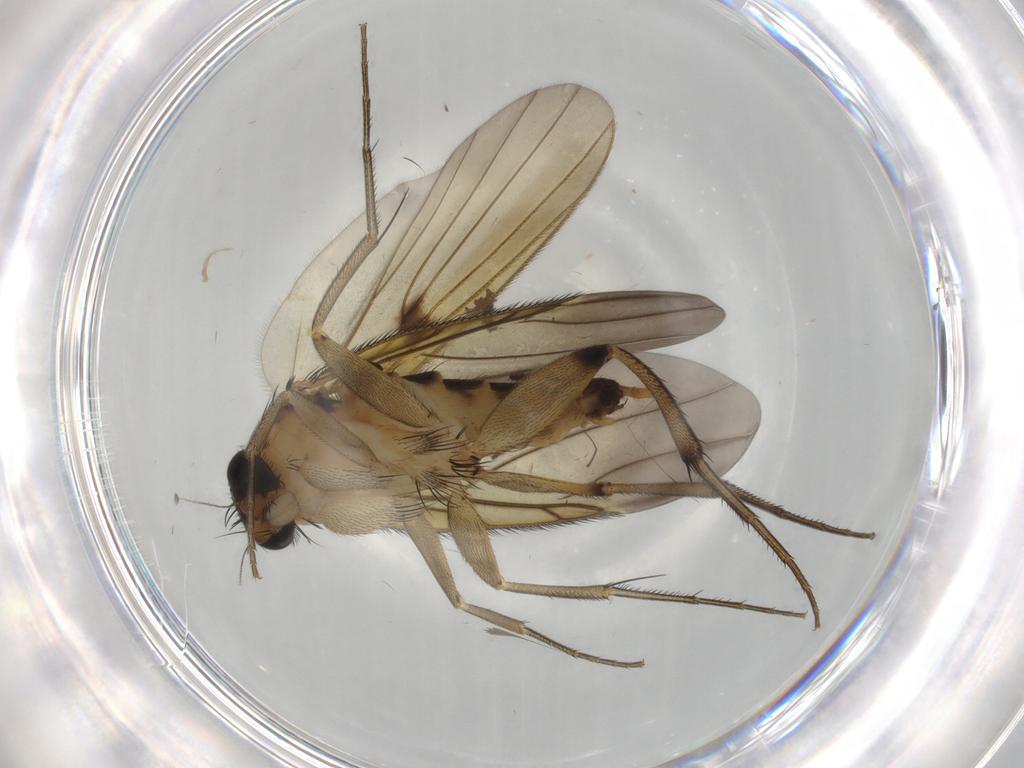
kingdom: Animalia
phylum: Arthropoda
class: Insecta
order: Diptera
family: Phoridae
